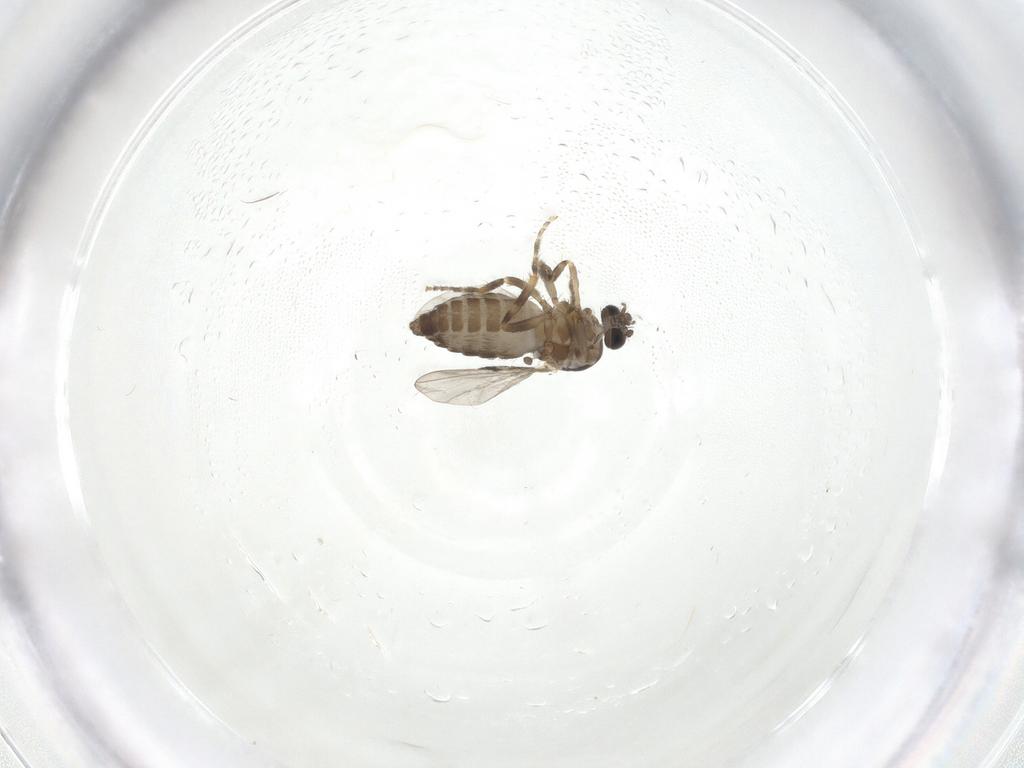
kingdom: Animalia
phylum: Arthropoda
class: Insecta
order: Diptera
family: Ceratopogonidae
